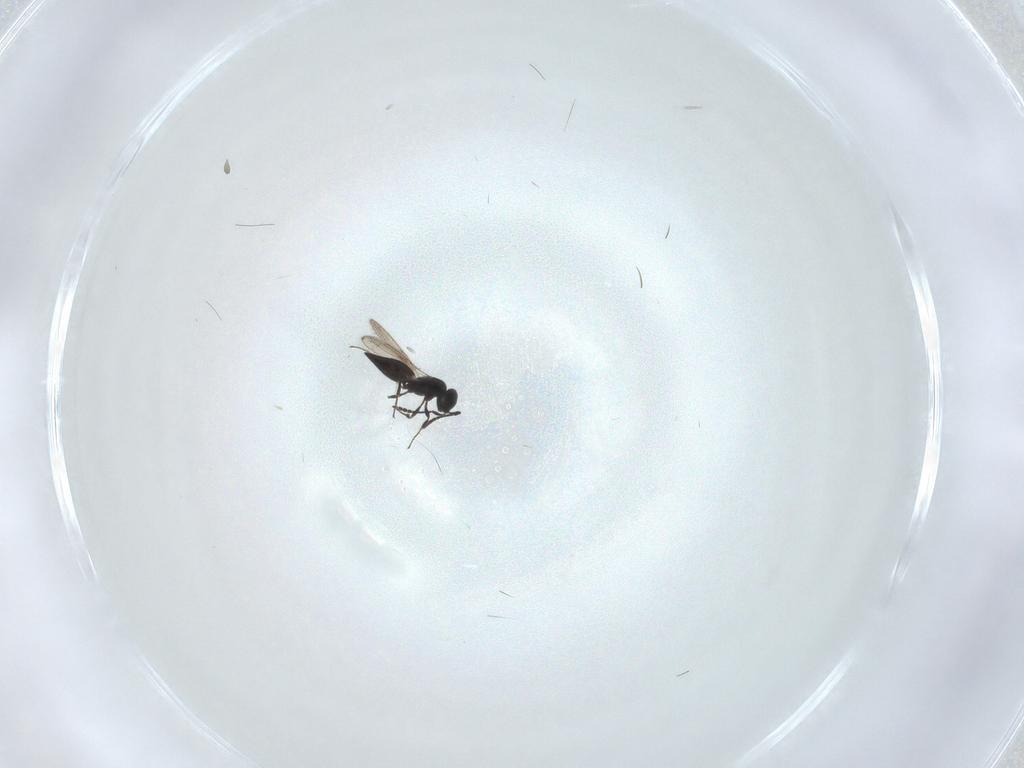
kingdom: Animalia
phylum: Arthropoda
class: Insecta
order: Hymenoptera
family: Scelionidae
